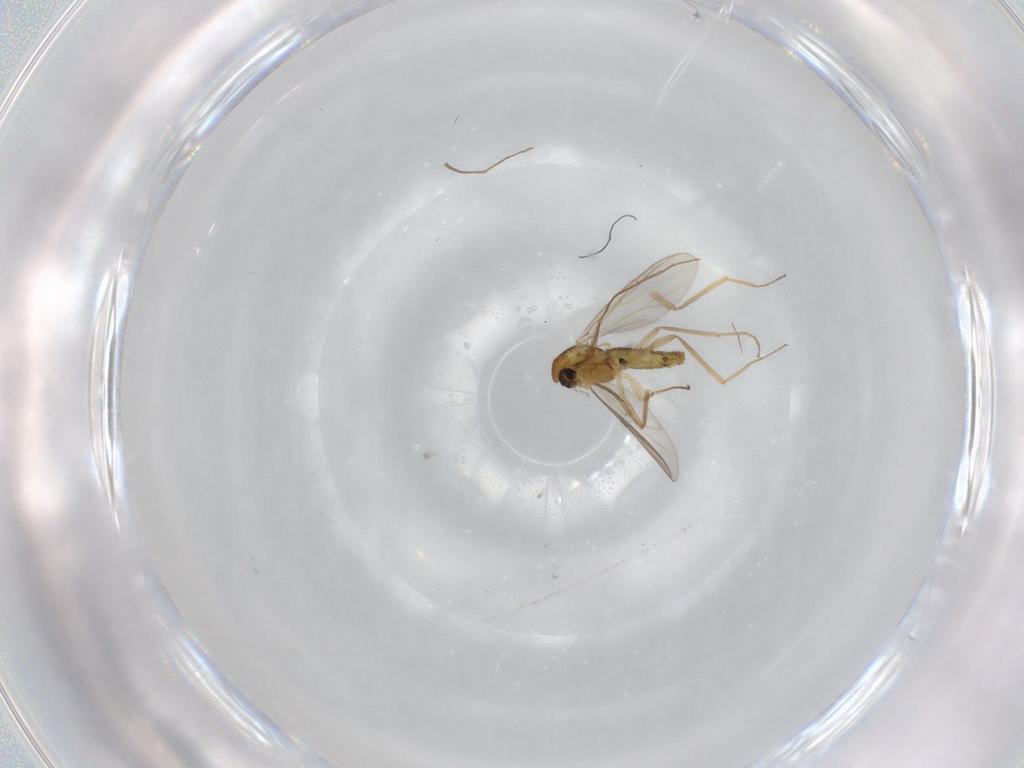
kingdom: Animalia
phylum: Arthropoda
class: Insecta
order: Diptera
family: Chironomidae
